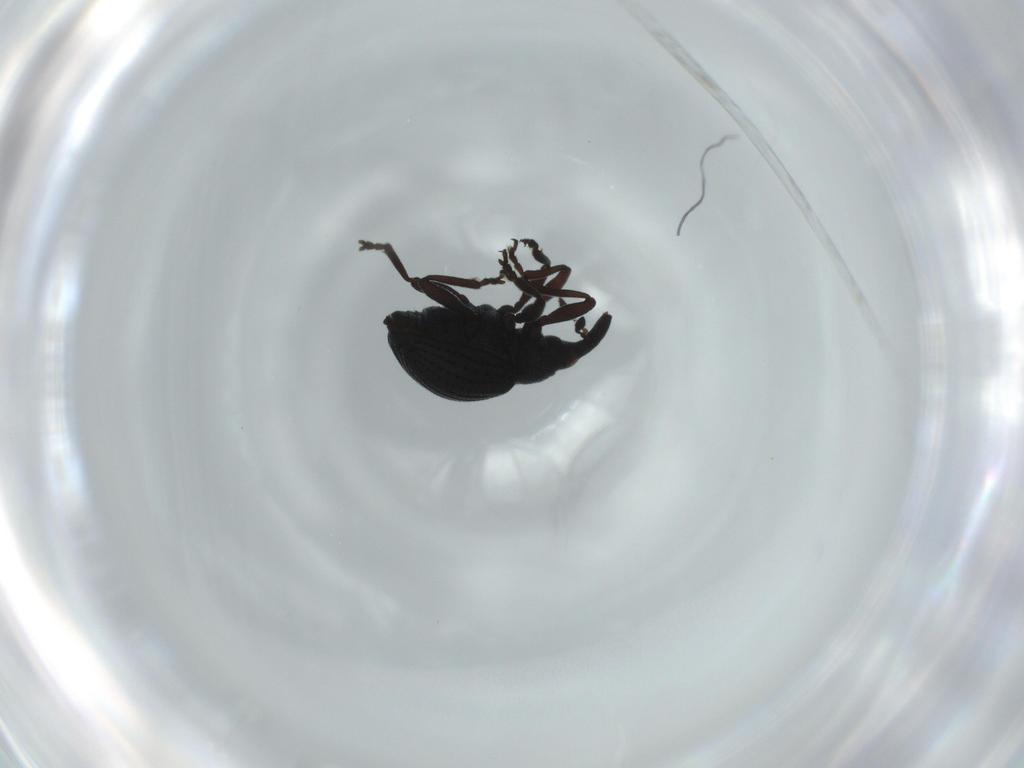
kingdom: Animalia
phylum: Arthropoda
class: Insecta
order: Coleoptera
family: Brentidae
